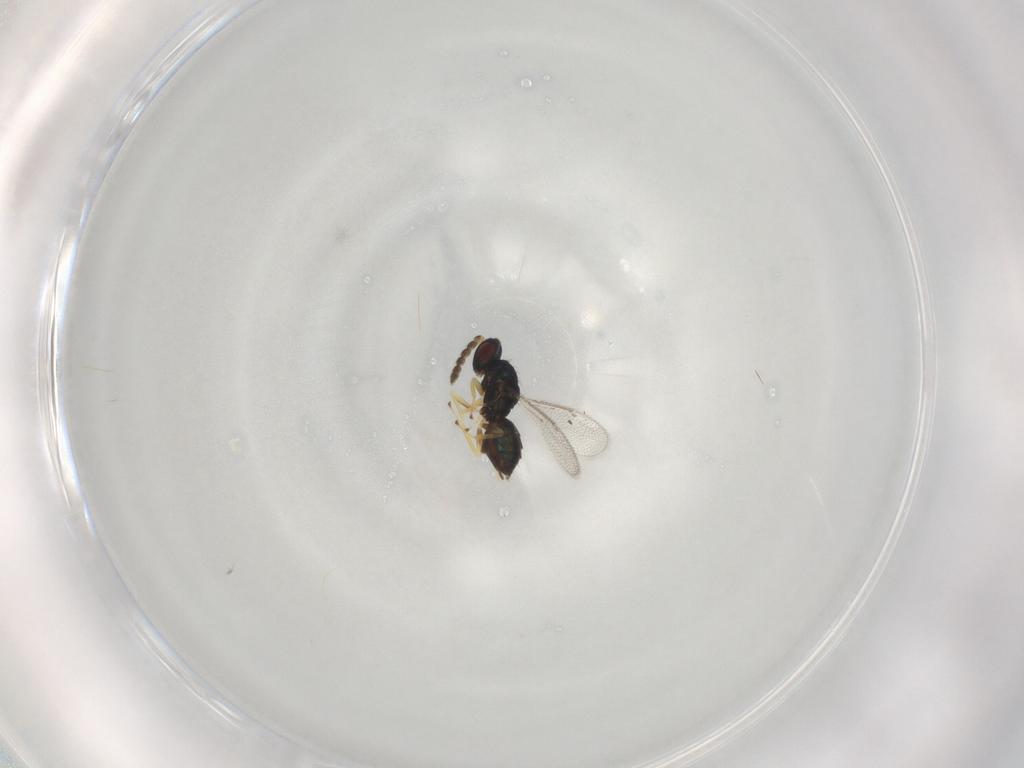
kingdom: Animalia
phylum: Arthropoda
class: Insecta
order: Hymenoptera
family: Eulophidae
